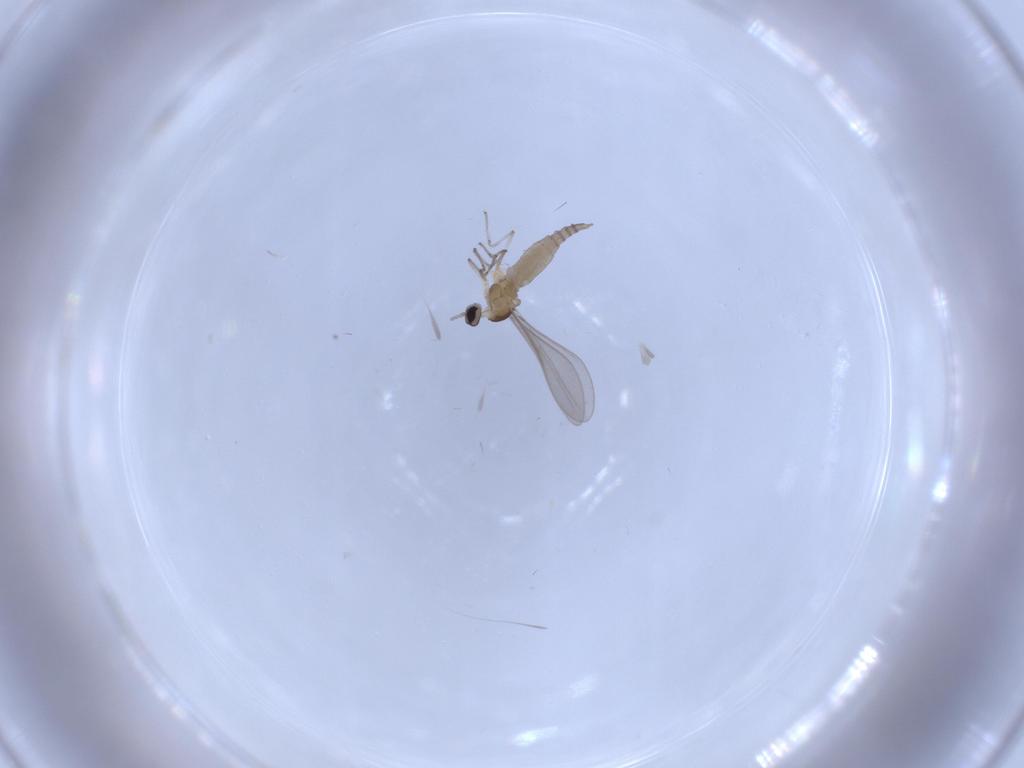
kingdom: Animalia
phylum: Arthropoda
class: Insecta
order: Diptera
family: Cecidomyiidae
